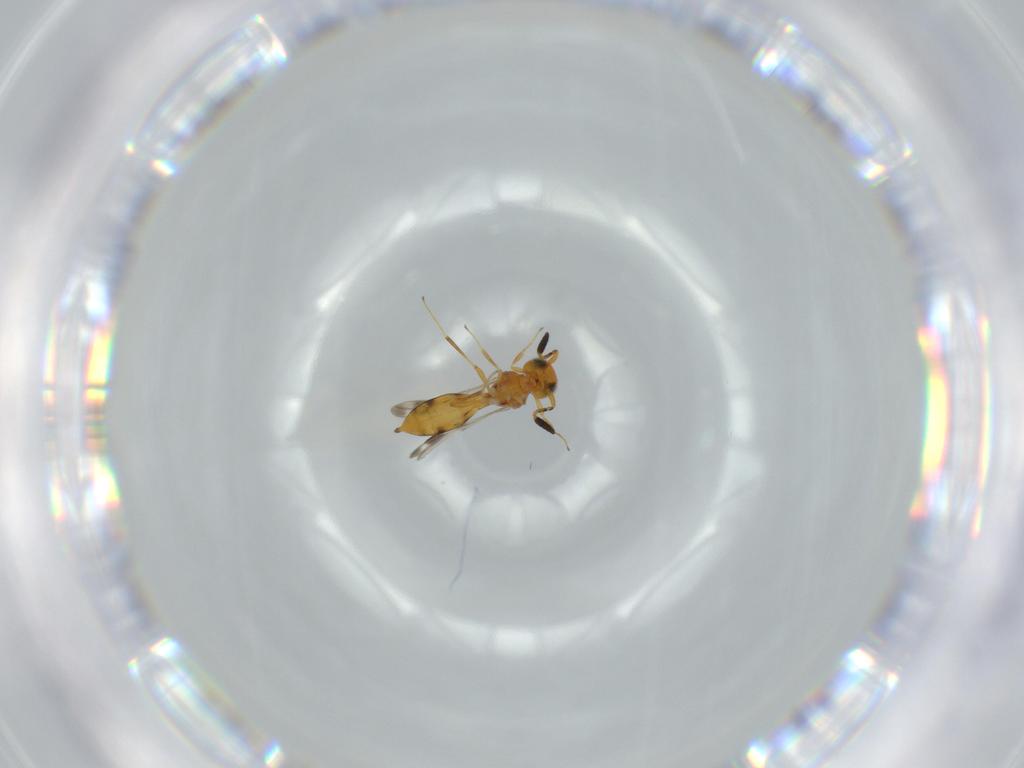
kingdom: Animalia
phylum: Arthropoda
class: Insecta
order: Hymenoptera
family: Scelionidae
